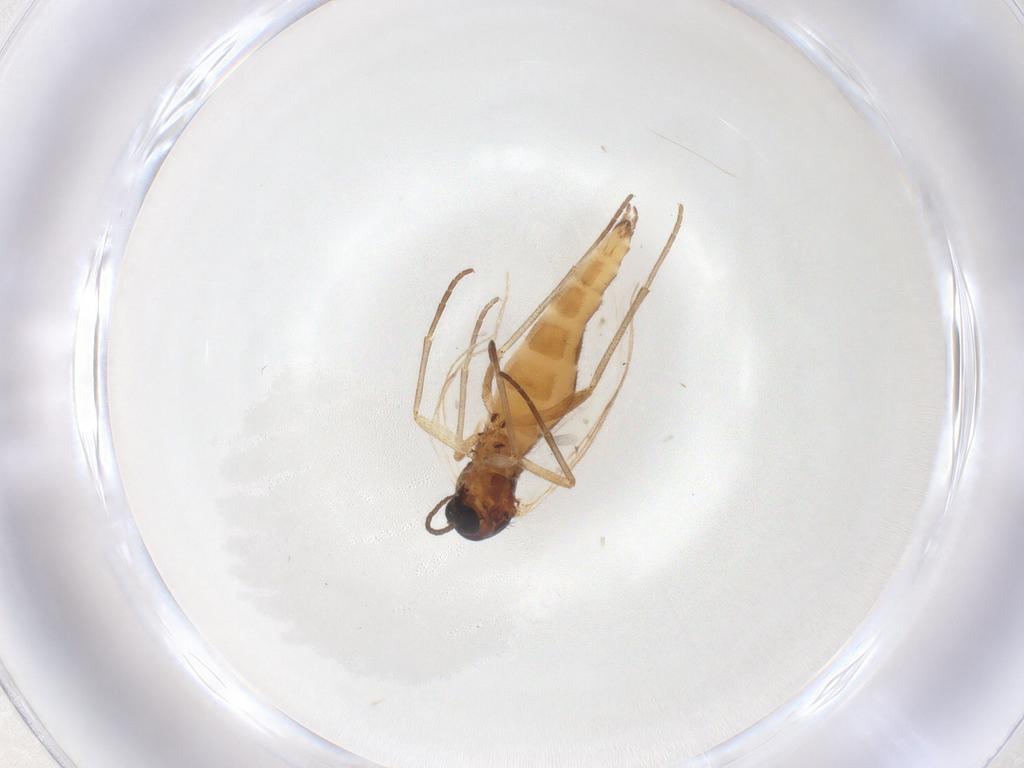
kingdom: Animalia
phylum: Arthropoda
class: Insecta
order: Diptera
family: Sciaridae
